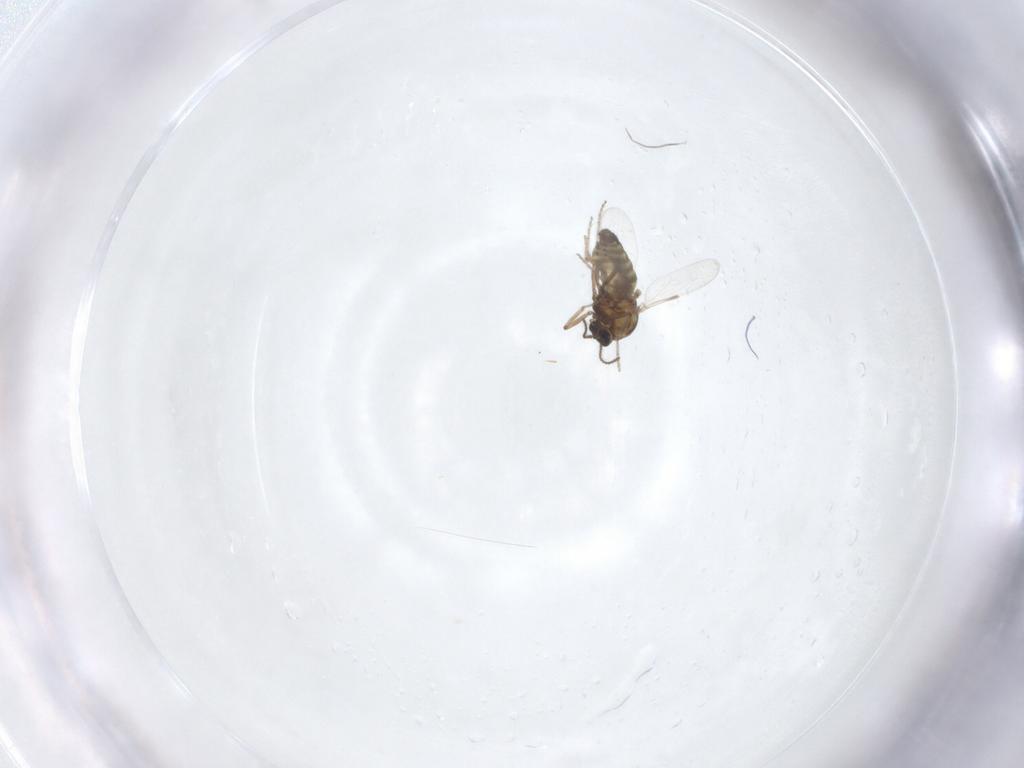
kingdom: Animalia
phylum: Arthropoda
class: Insecta
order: Diptera
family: Ceratopogonidae
